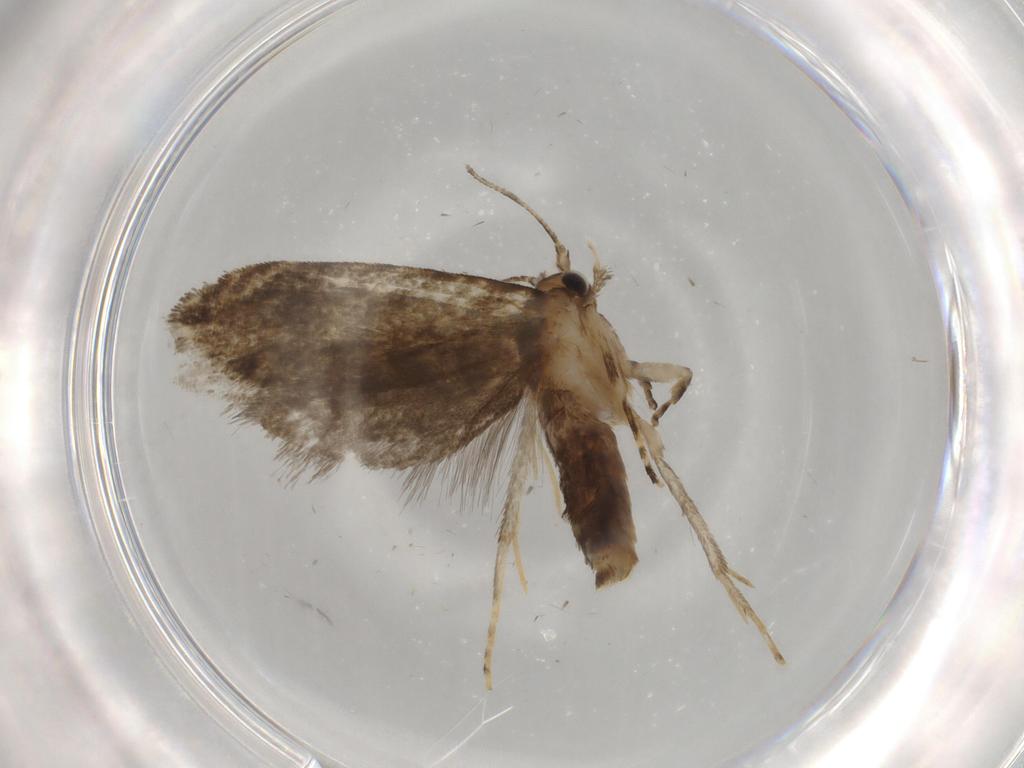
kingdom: Animalia
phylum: Arthropoda
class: Insecta
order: Lepidoptera
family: Tineidae
